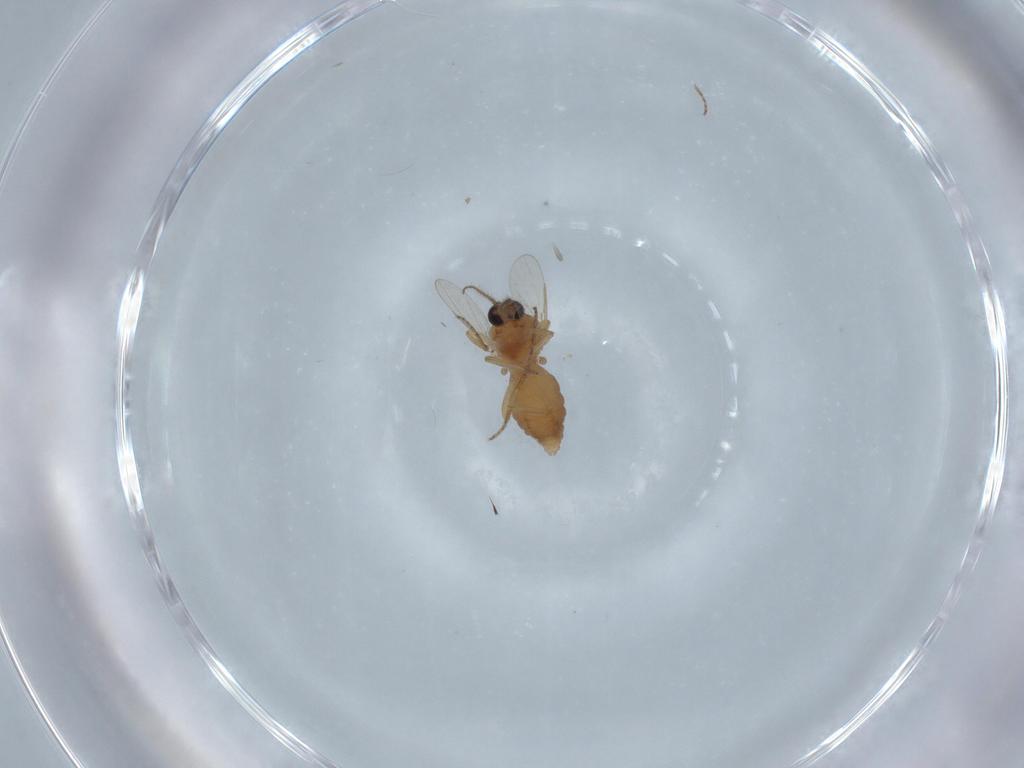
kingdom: Animalia
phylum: Arthropoda
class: Insecta
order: Diptera
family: Ceratopogonidae
